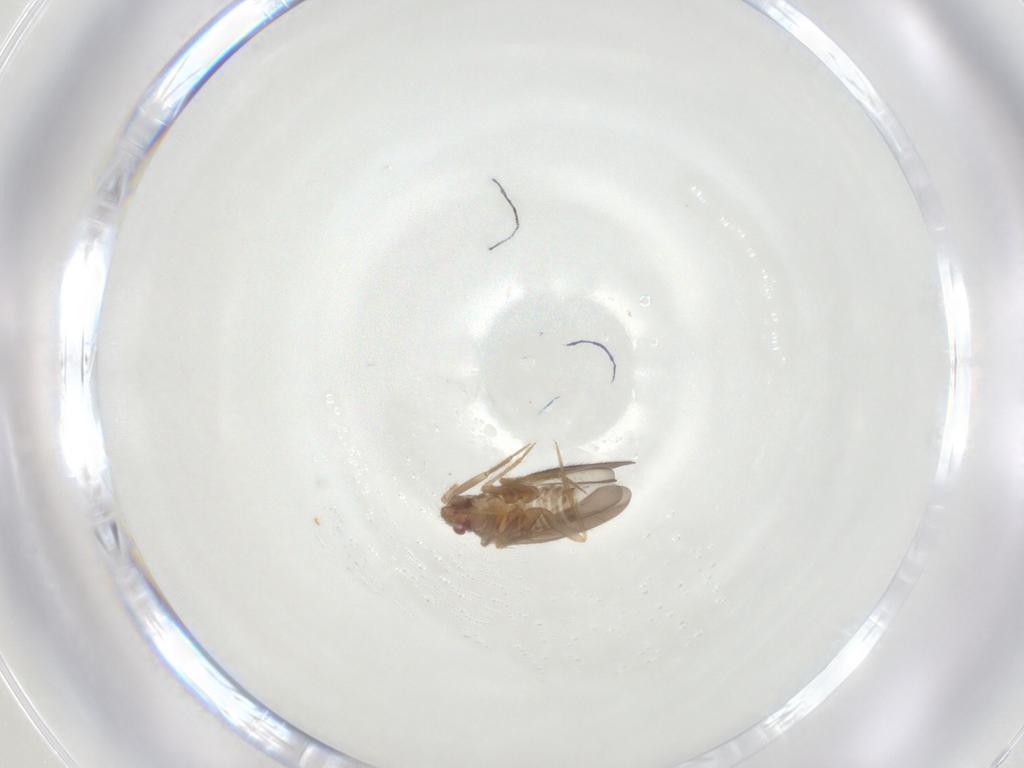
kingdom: Animalia
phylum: Arthropoda
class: Insecta
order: Hemiptera
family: Ceratocombidae
